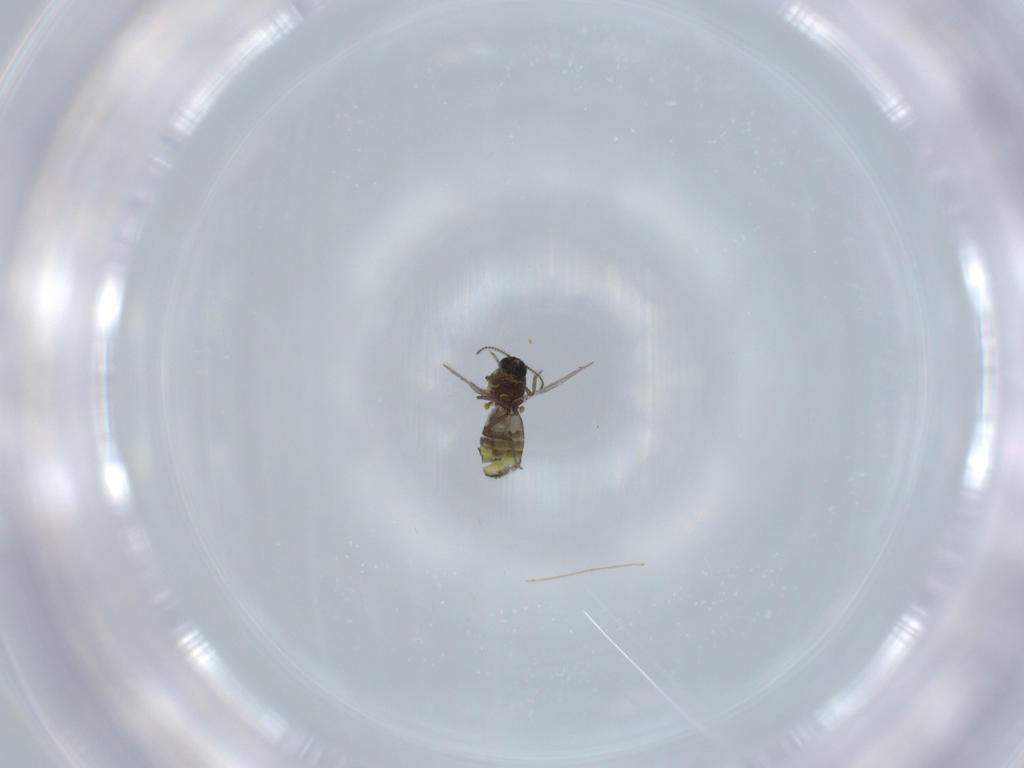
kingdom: Animalia
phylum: Arthropoda
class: Insecta
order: Diptera
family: Ceratopogonidae
